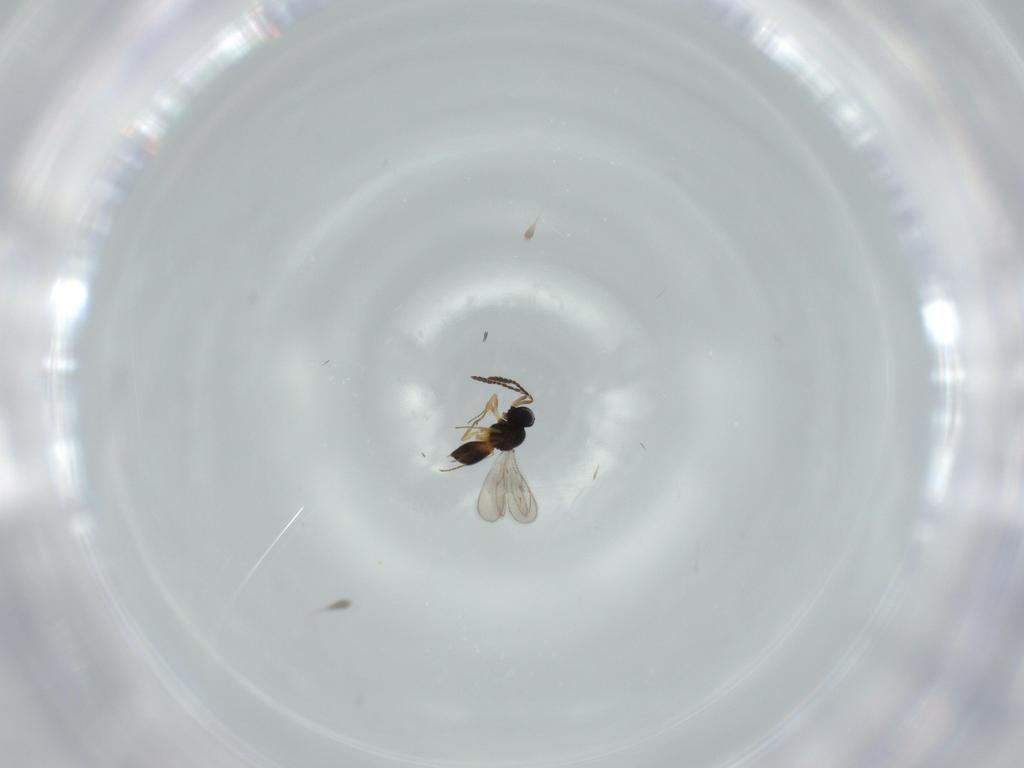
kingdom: Animalia
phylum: Arthropoda
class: Insecta
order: Hymenoptera
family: Scelionidae
